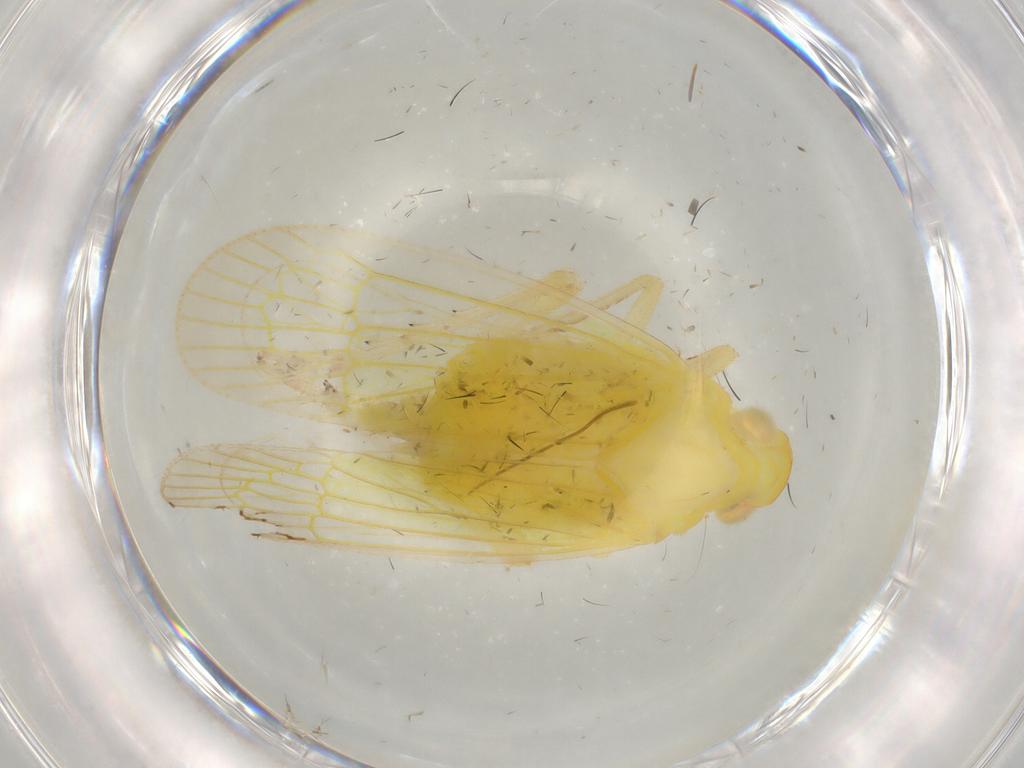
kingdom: Animalia
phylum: Arthropoda
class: Insecta
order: Hemiptera
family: Tropiduchidae
